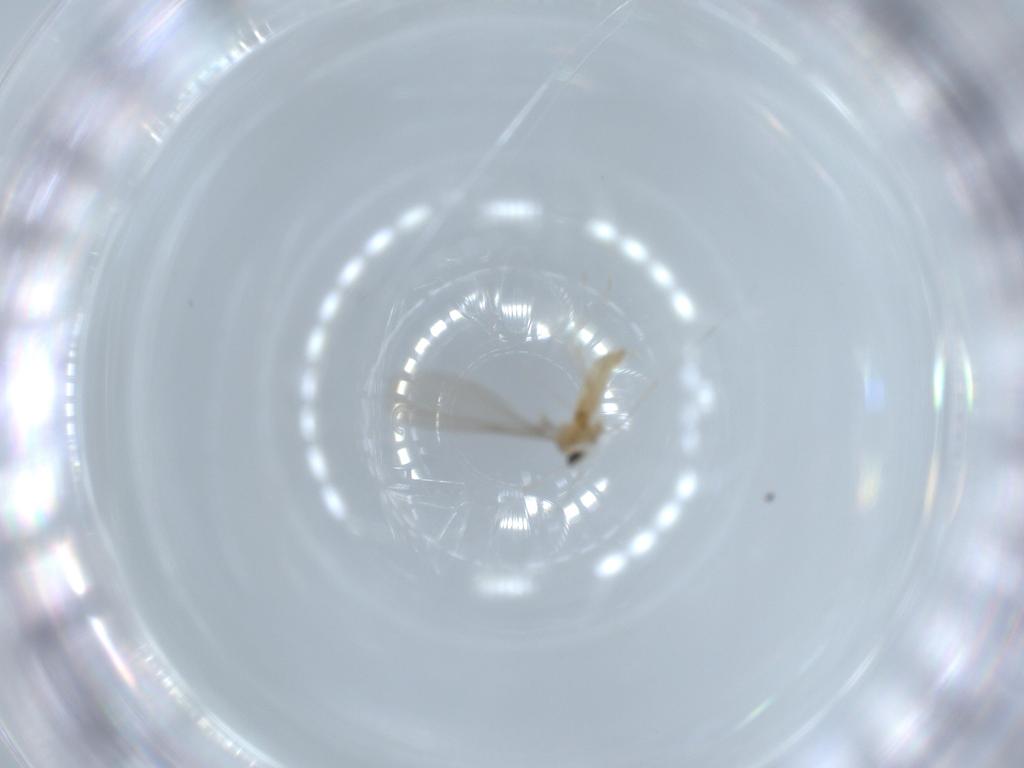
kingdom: Animalia
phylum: Arthropoda
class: Insecta
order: Diptera
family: Cecidomyiidae
